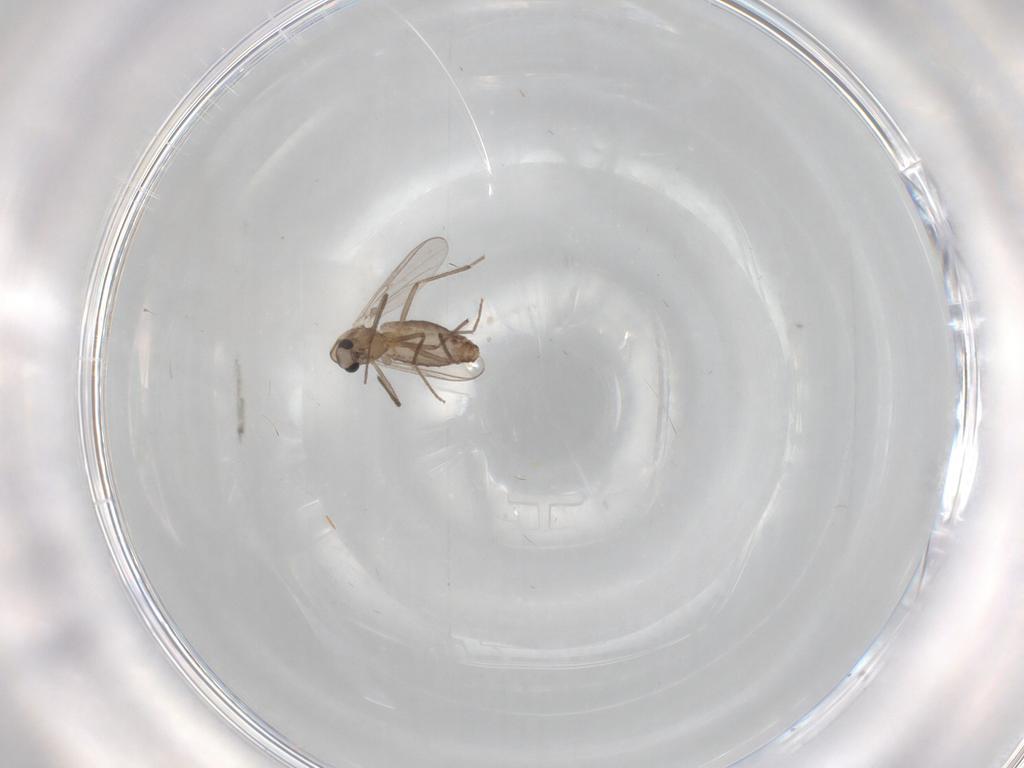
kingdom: Animalia
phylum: Arthropoda
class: Insecta
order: Diptera
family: Chironomidae
